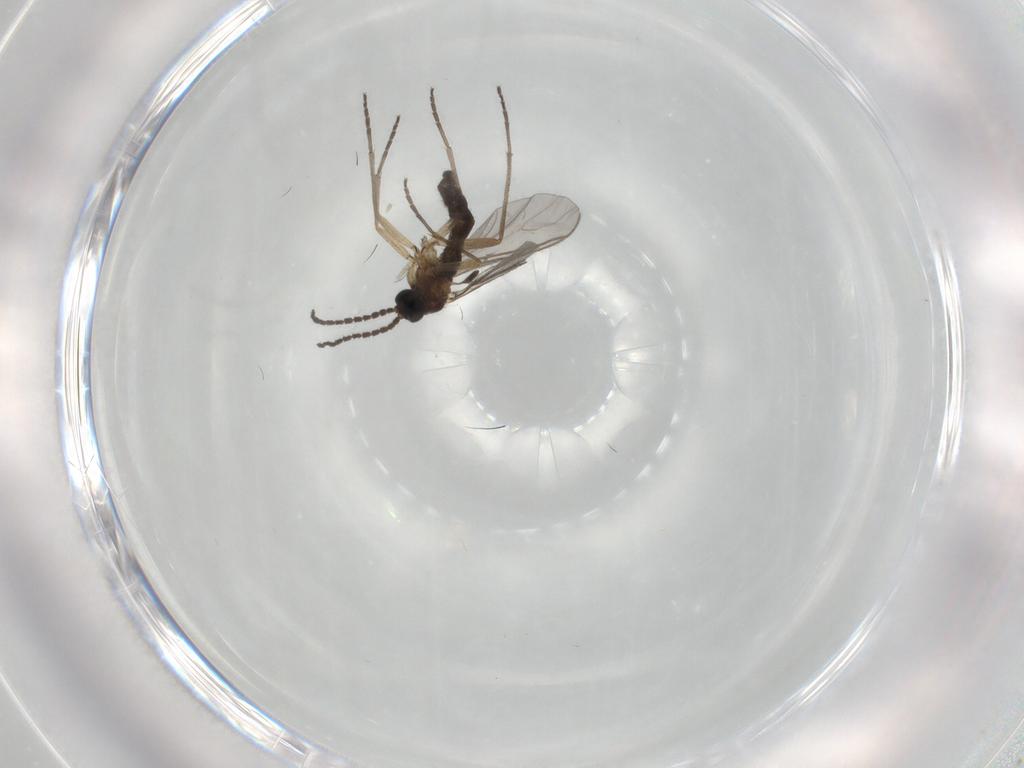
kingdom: Animalia
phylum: Arthropoda
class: Insecta
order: Diptera
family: Sciaridae
